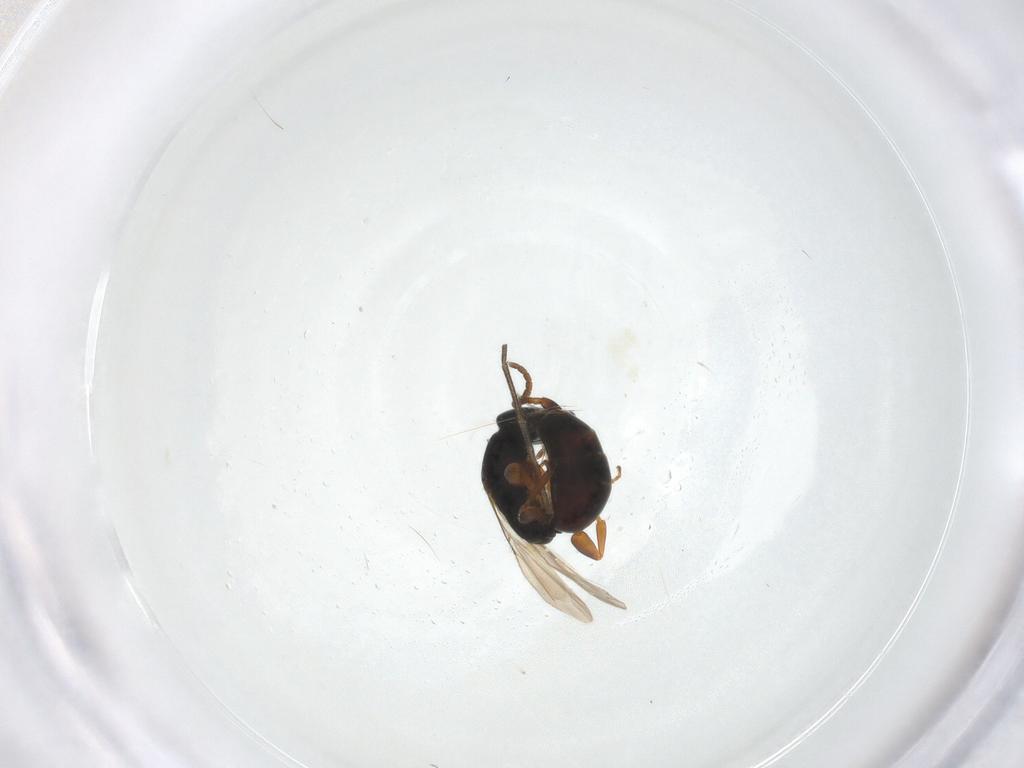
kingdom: Animalia
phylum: Arthropoda
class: Insecta
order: Hymenoptera
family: Bethylidae
